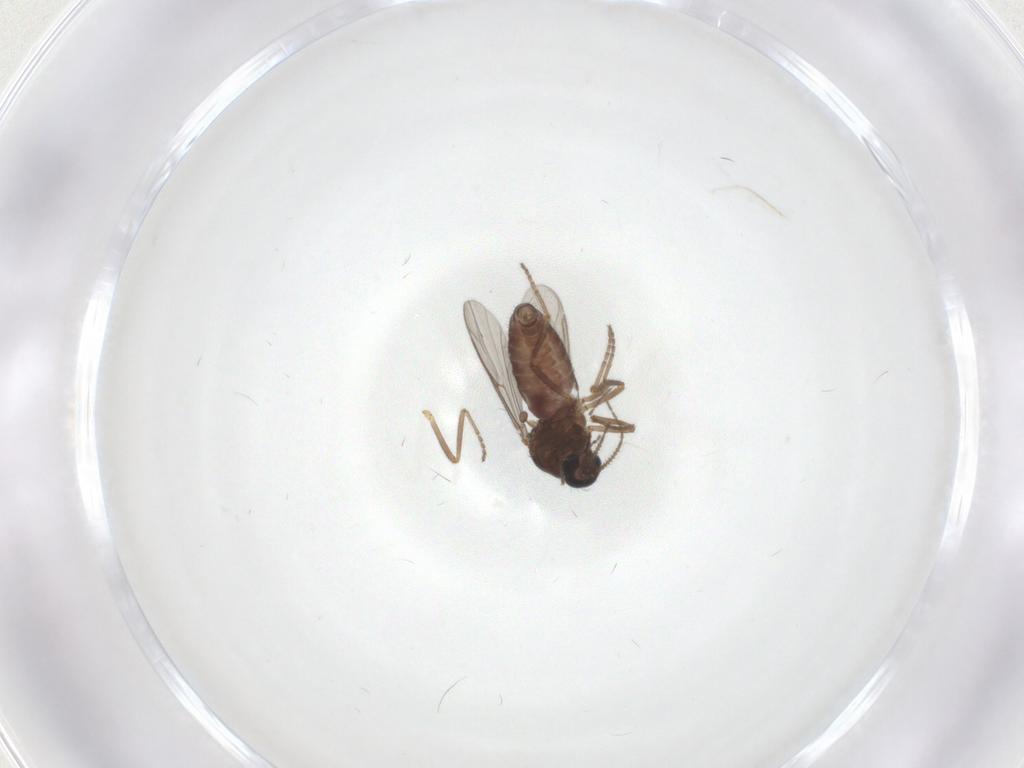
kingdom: Animalia
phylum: Arthropoda
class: Insecta
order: Diptera
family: Ceratopogonidae
